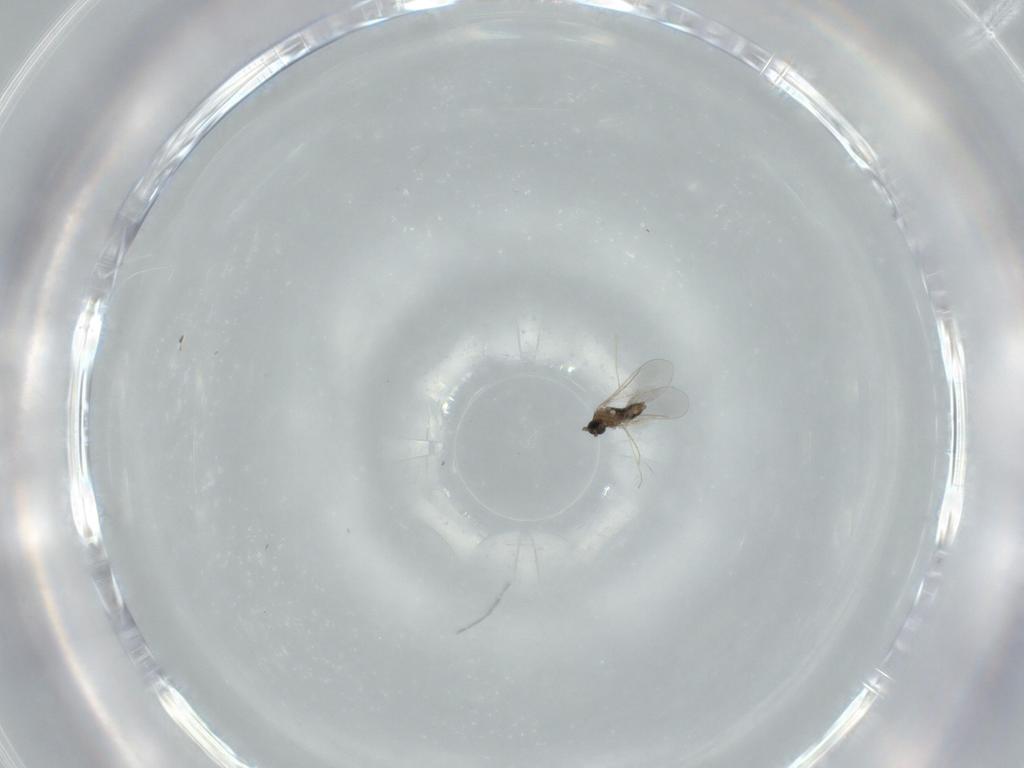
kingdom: Animalia
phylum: Arthropoda
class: Insecta
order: Diptera
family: Cecidomyiidae
